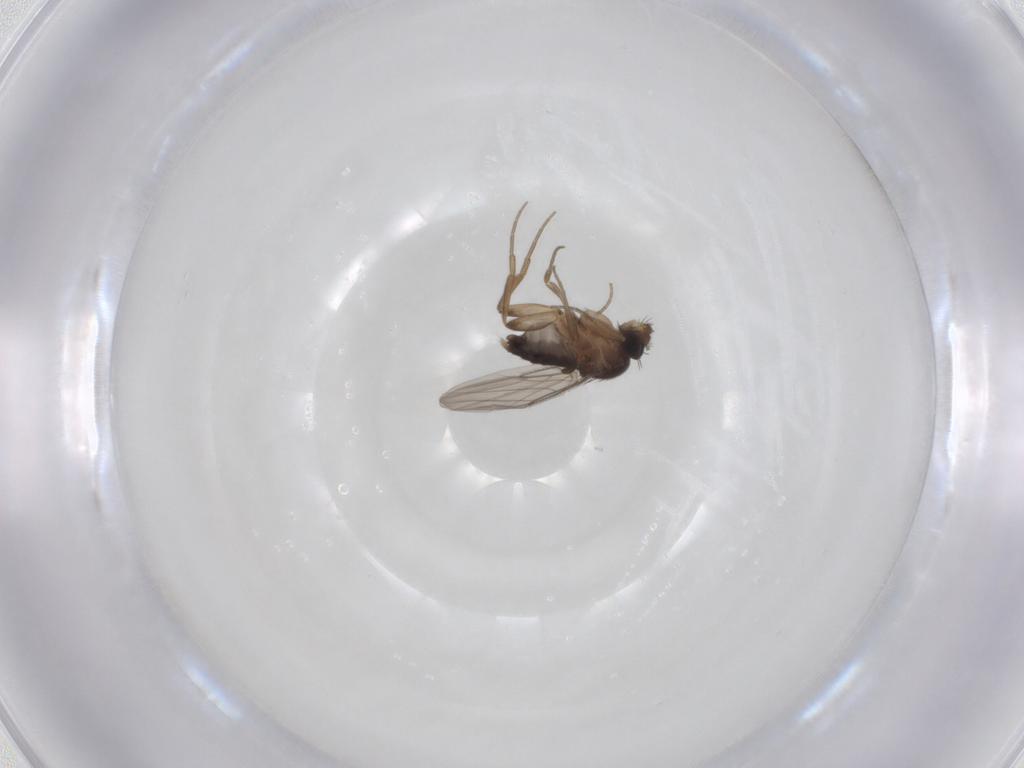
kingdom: Animalia
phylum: Arthropoda
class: Insecta
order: Diptera
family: Phoridae
